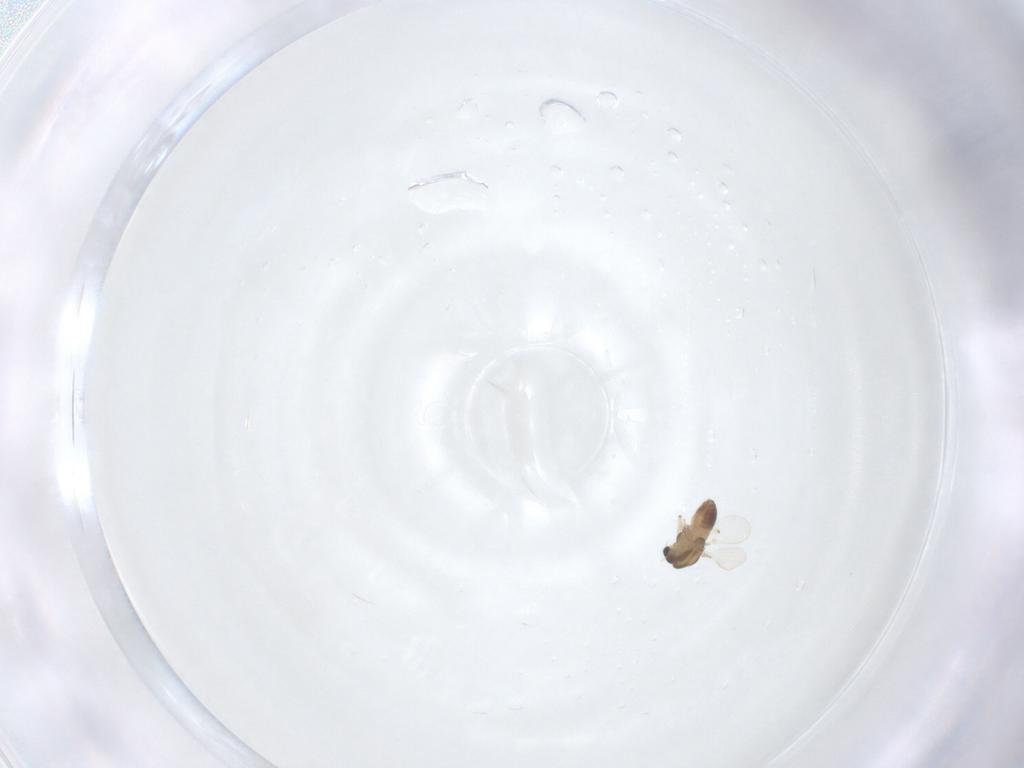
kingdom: Animalia
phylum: Arthropoda
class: Insecta
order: Diptera
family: Chironomidae
